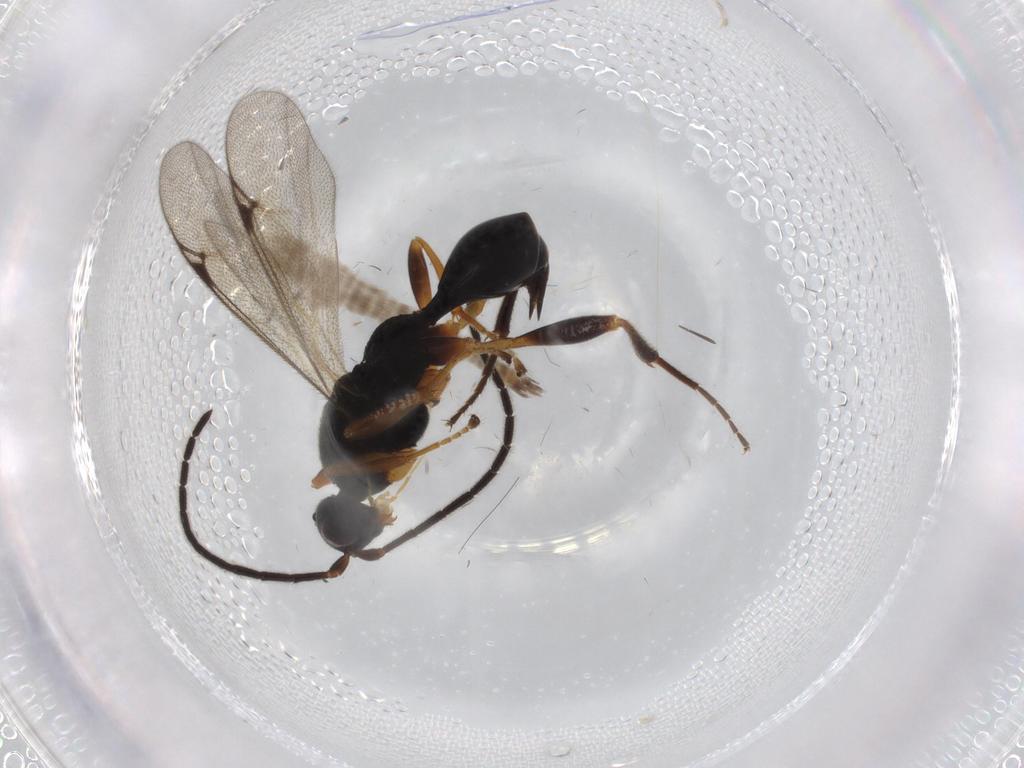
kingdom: Animalia
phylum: Arthropoda
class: Insecta
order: Hymenoptera
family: Proctotrupidae
